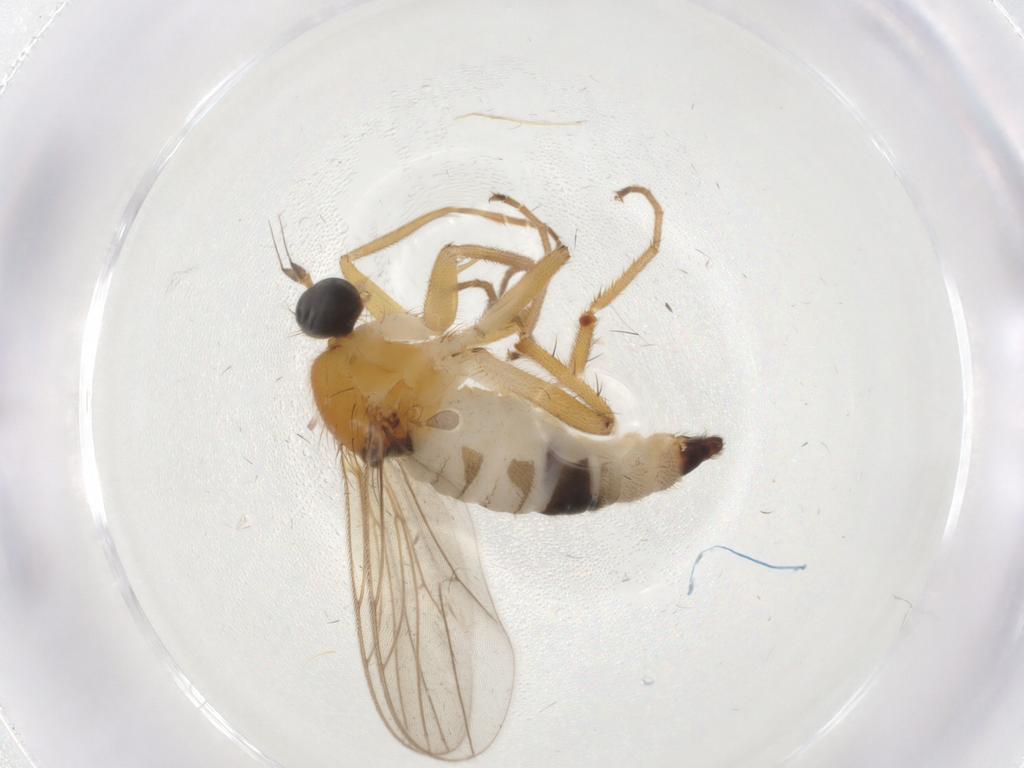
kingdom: Animalia
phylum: Arthropoda
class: Insecta
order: Diptera
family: Hybotidae
